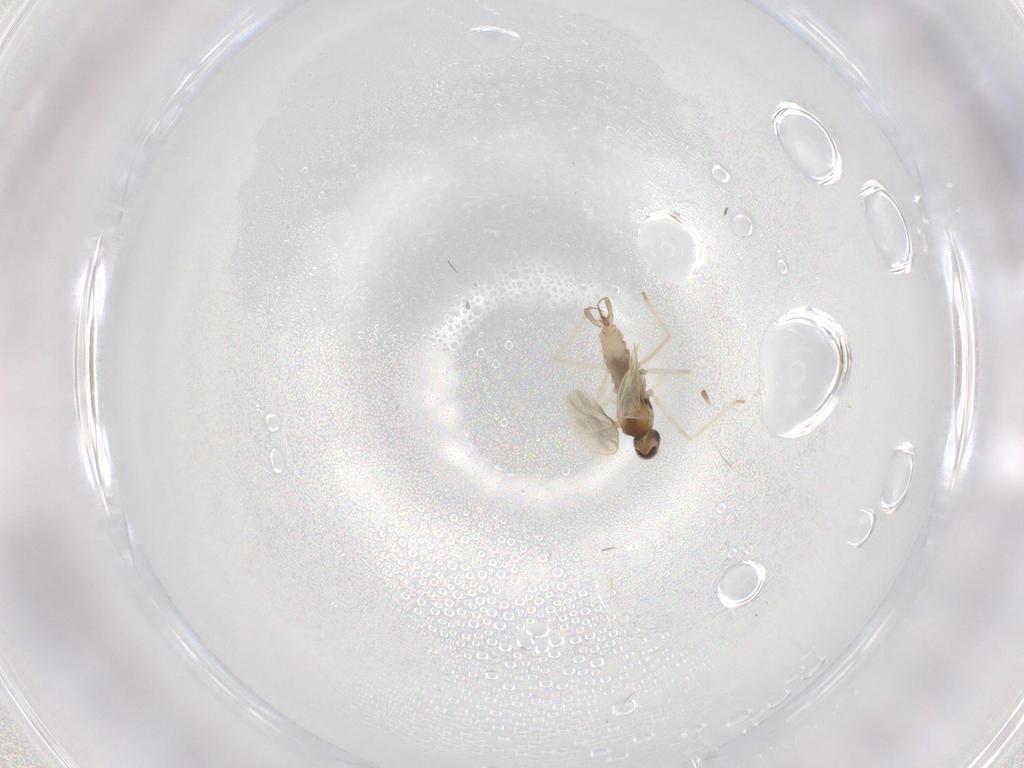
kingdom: Animalia
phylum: Arthropoda
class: Insecta
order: Diptera
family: Cecidomyiidae
